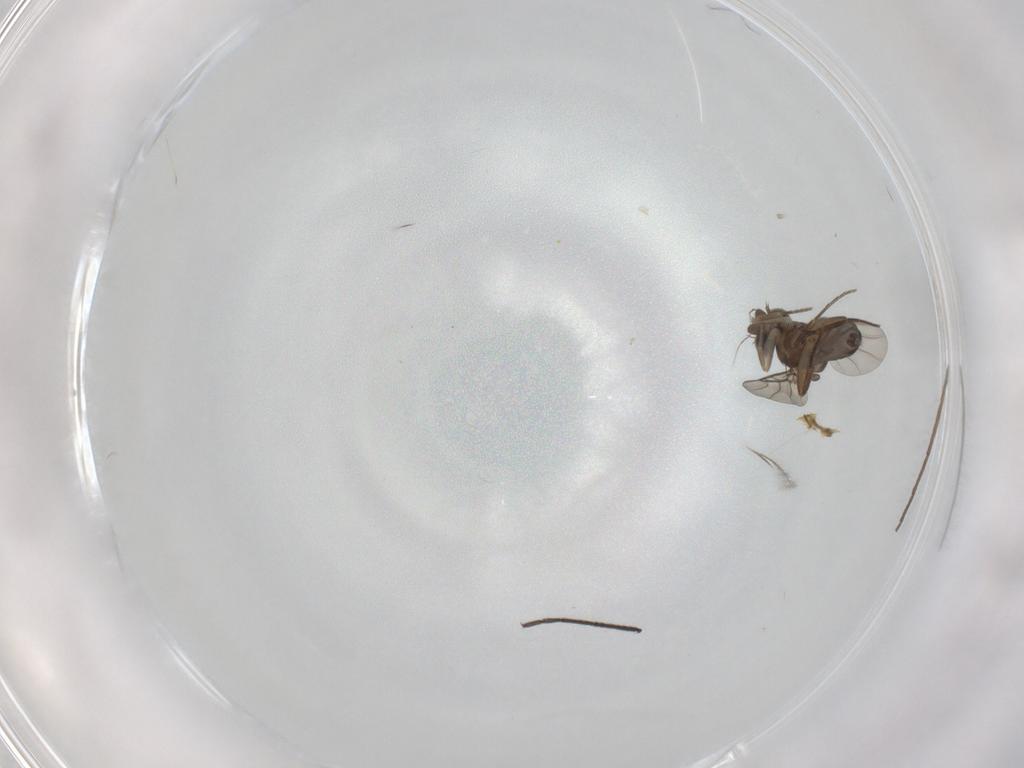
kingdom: Animalia
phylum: Arthropoda
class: Insecta
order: Diptera
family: Phoridae
